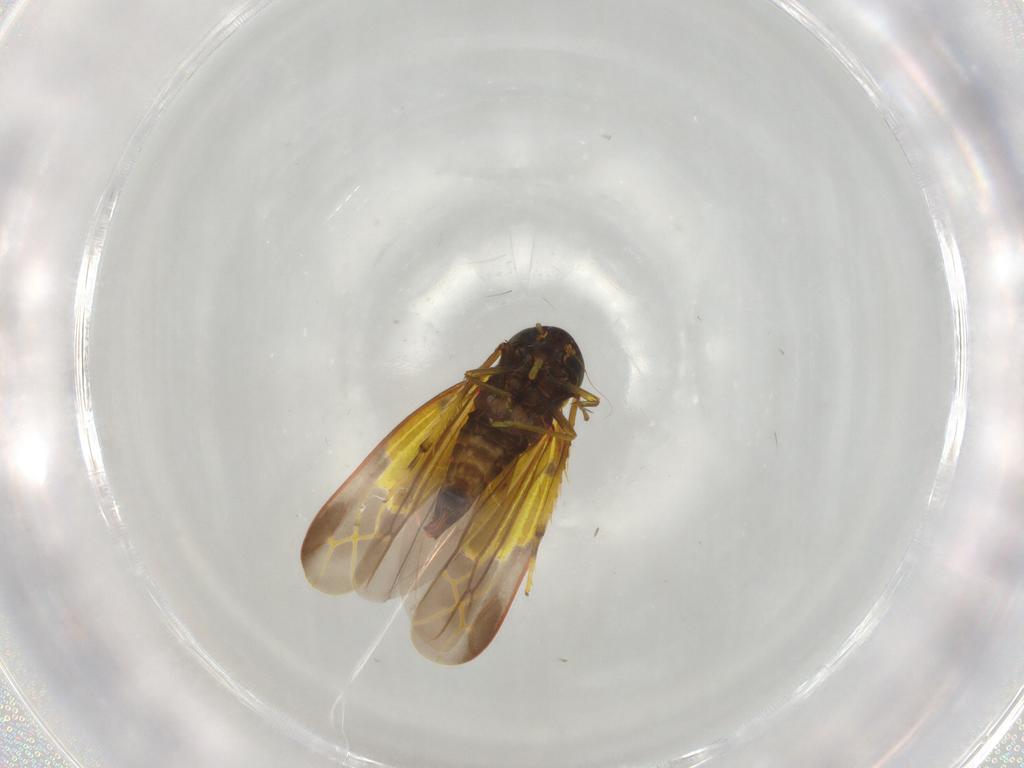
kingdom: Animalia
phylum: Arthropoda
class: Insecta
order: Hemiptera
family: Cicadellidae
